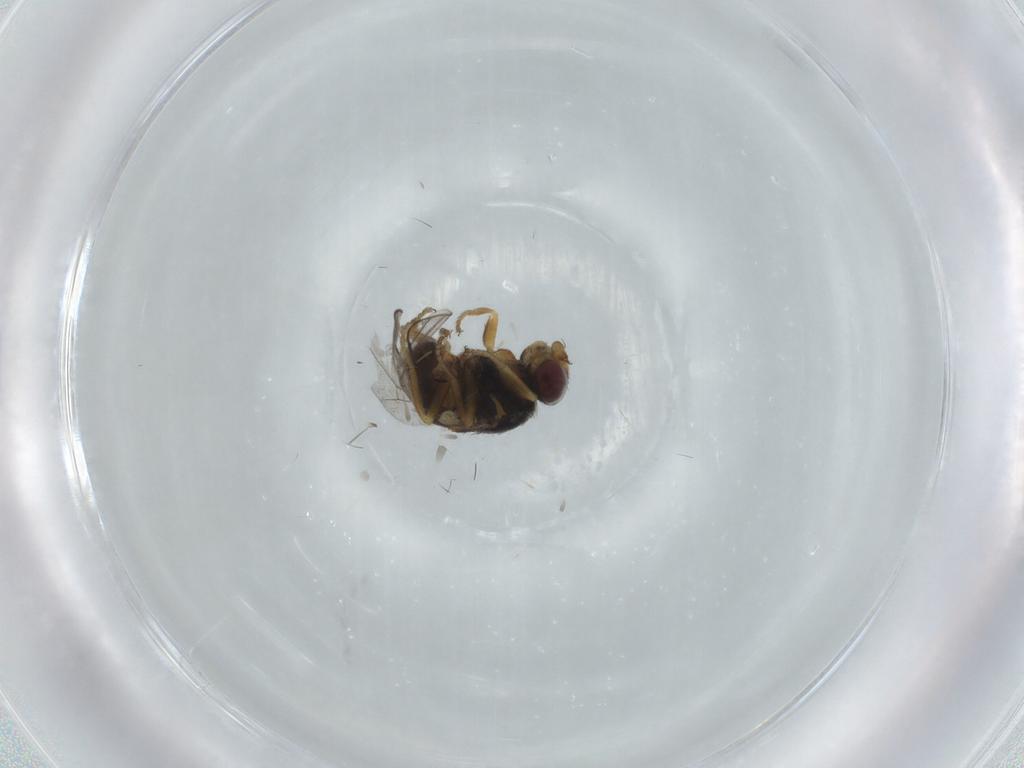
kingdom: Animalia
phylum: Arthropoda
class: Insecta
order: Diptera
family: Chloropidae
